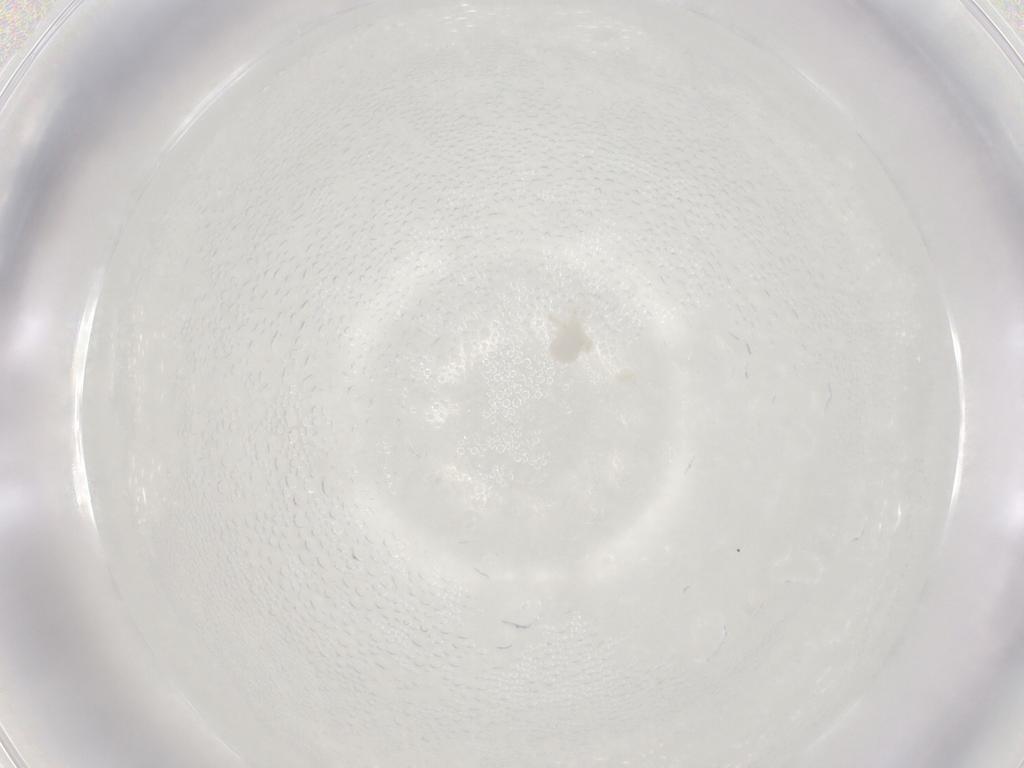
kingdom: Animalia
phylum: Arthropoda
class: Arachnida
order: Trombidiformes
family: Anystidae
